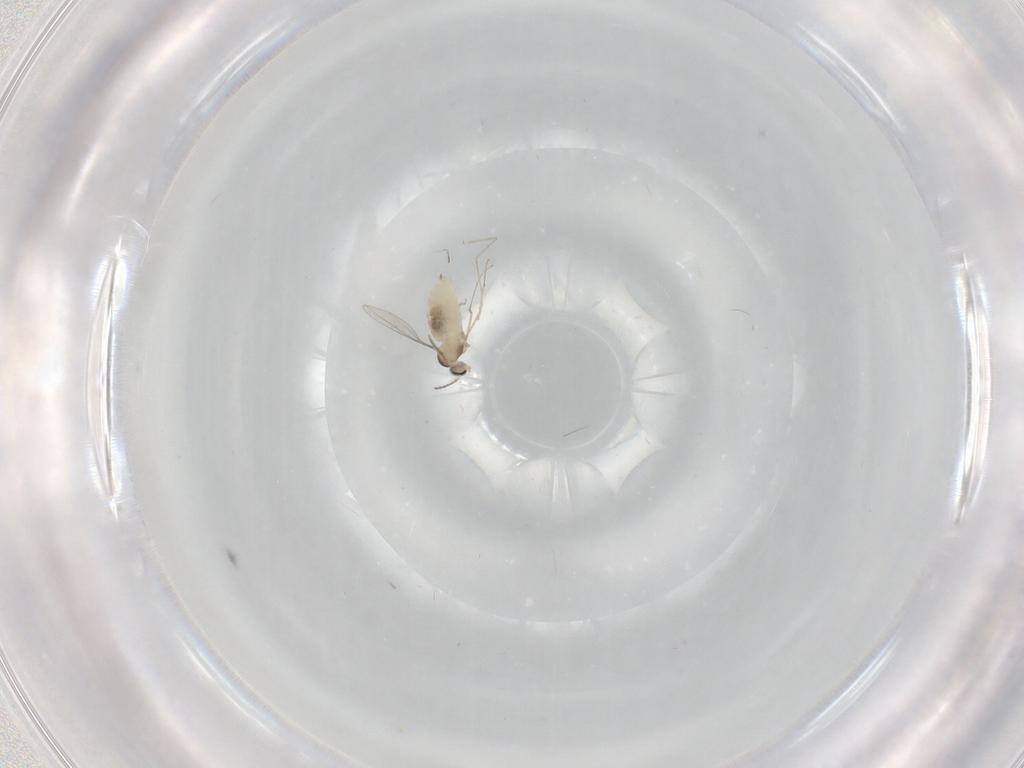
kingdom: Animalia
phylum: Arthropoda
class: Insecta
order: Diptera
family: Cecidomyiidae
